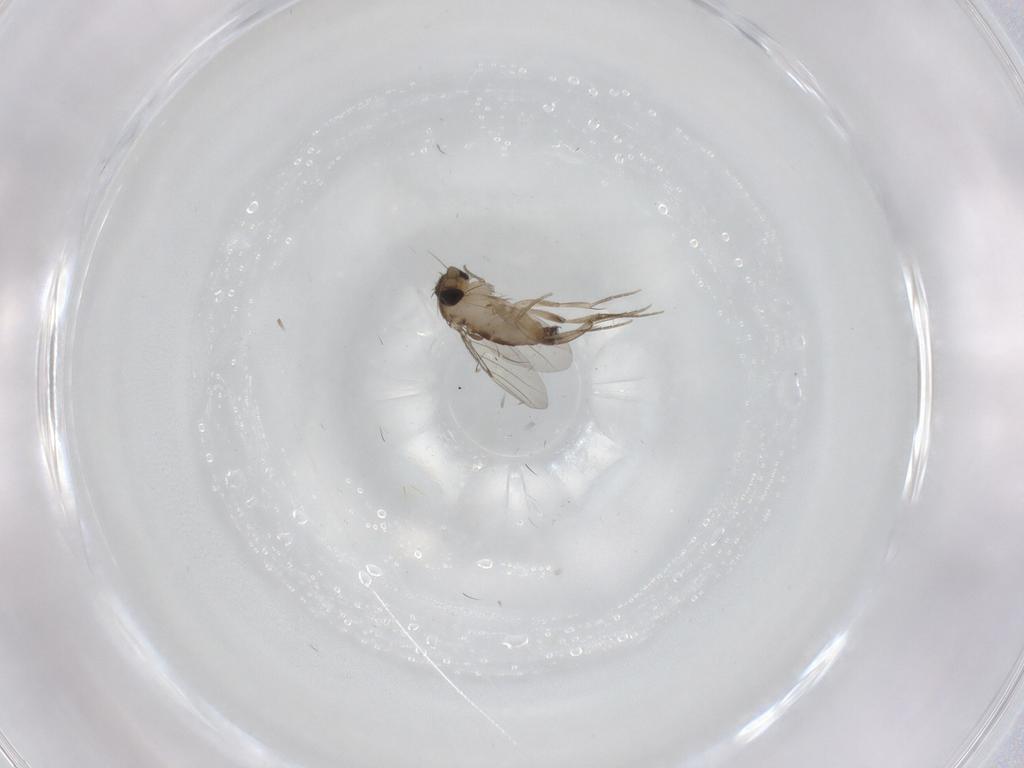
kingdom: Animalia
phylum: Arthropoda
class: Insecta
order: Diptera
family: Phoridae
